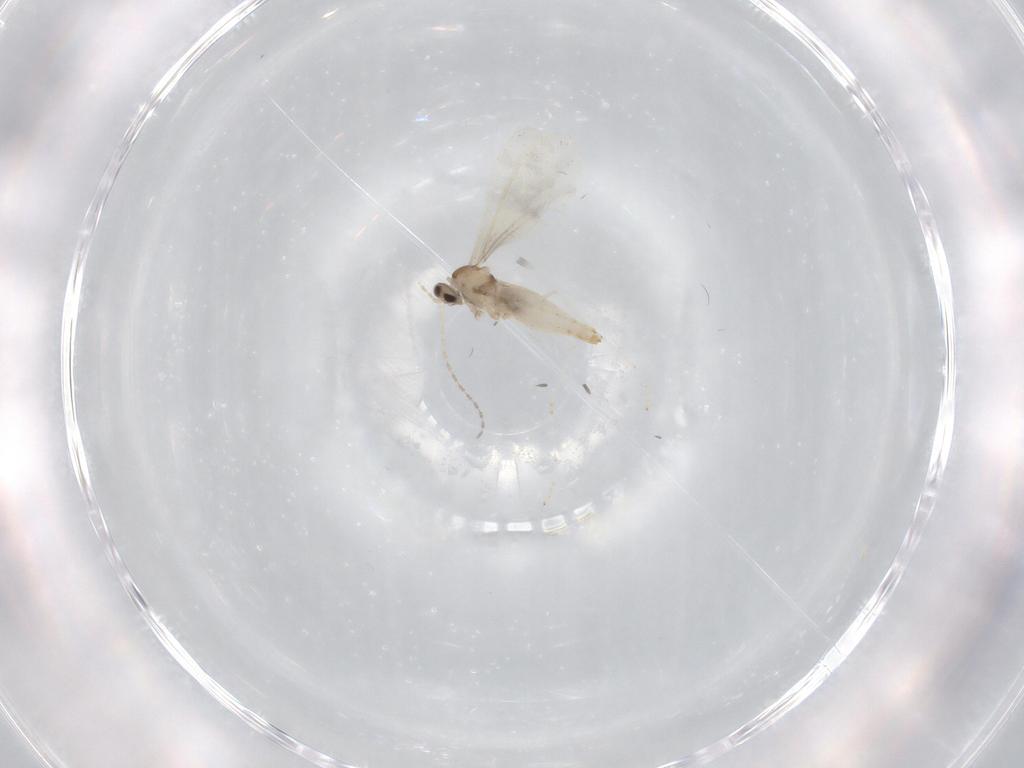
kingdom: Animalia
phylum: Arthropoda
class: Insecta
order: Diptera
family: Cecidomyiidae
